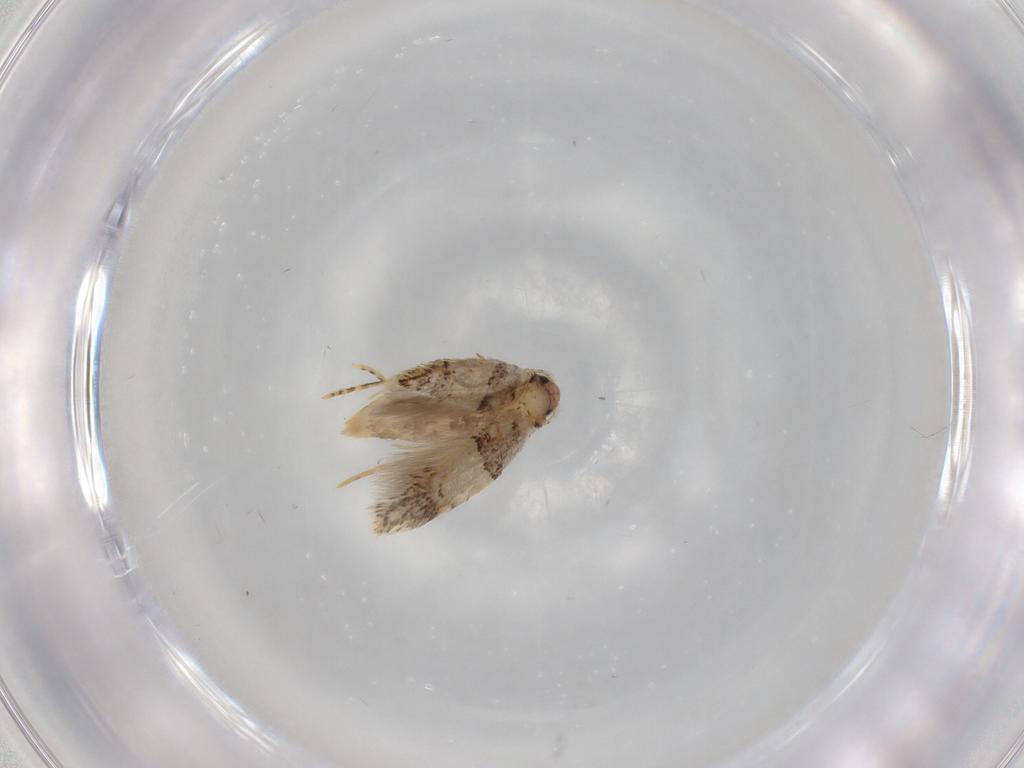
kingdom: Animalia
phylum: Arthropoda
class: Insecta
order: Lepidoptera
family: Tineidae
